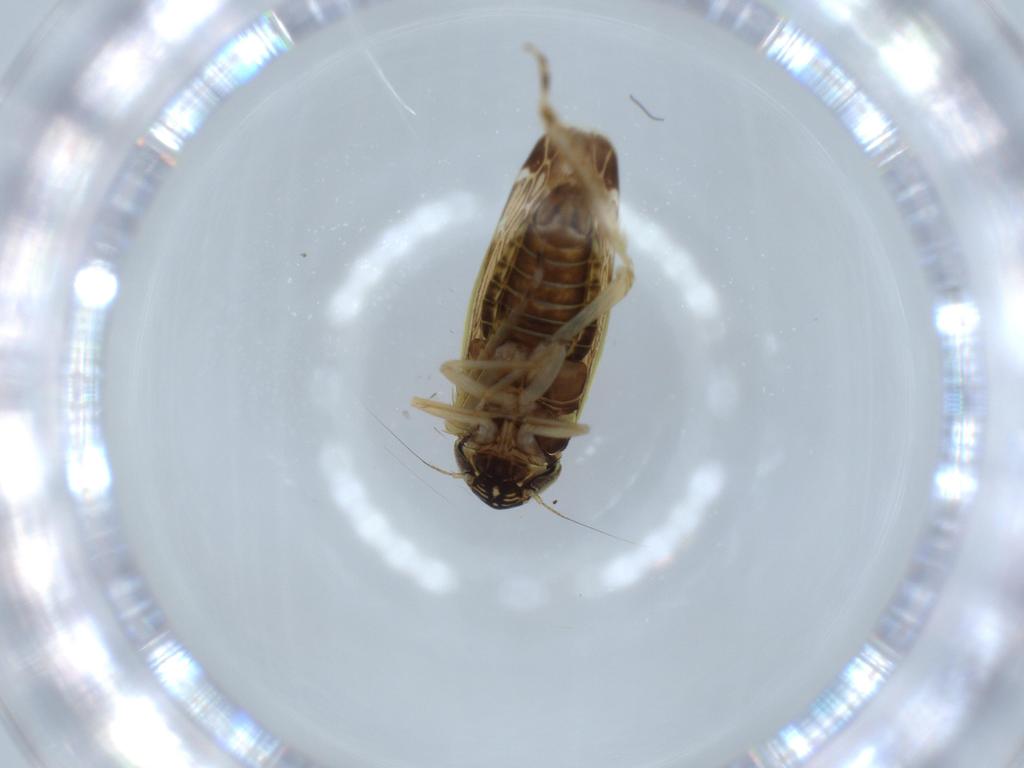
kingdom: Animalia
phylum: Arthropoda
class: Insecta
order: Hemiptera
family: Cicadellidae
